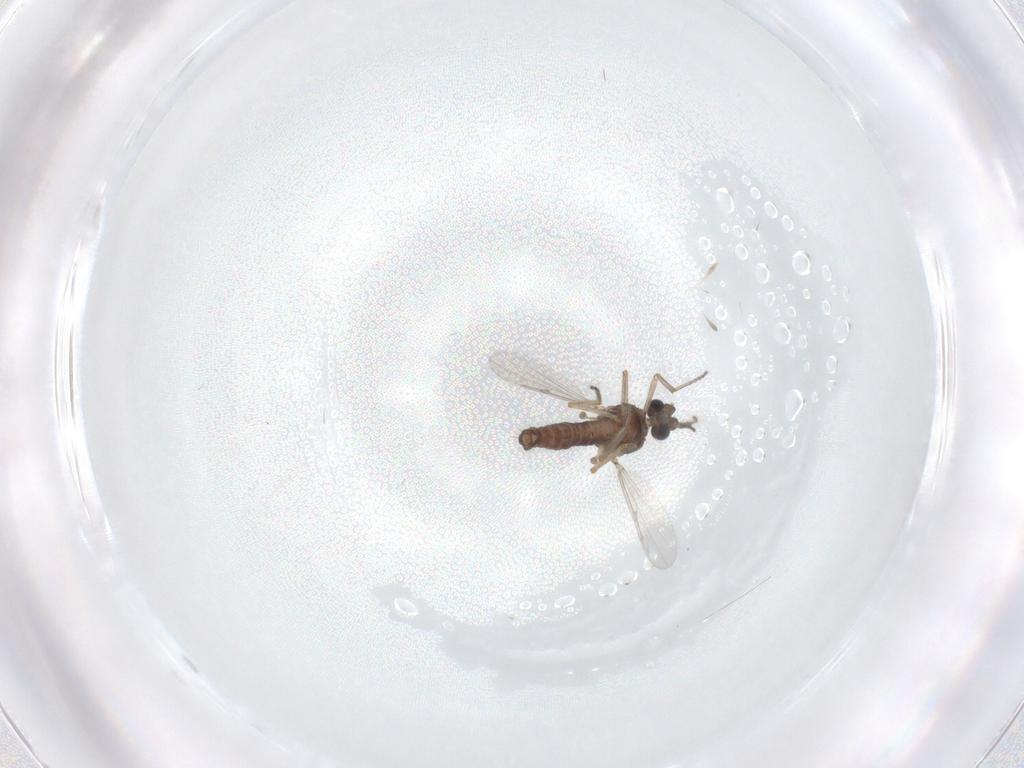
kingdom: Animalia
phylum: Arthropoda
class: Insecta
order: Diptera
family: Ceratopogonidae
